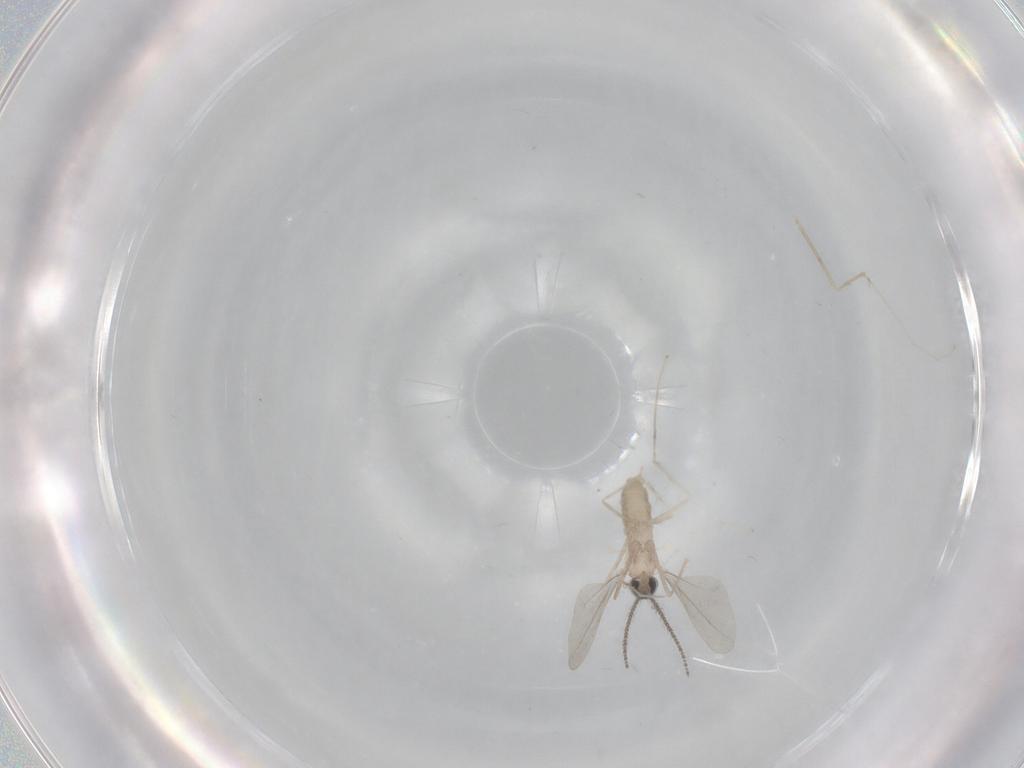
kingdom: Animalia
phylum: Arthropoda
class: Insecta
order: Diptera
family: Cecidomyiidae
